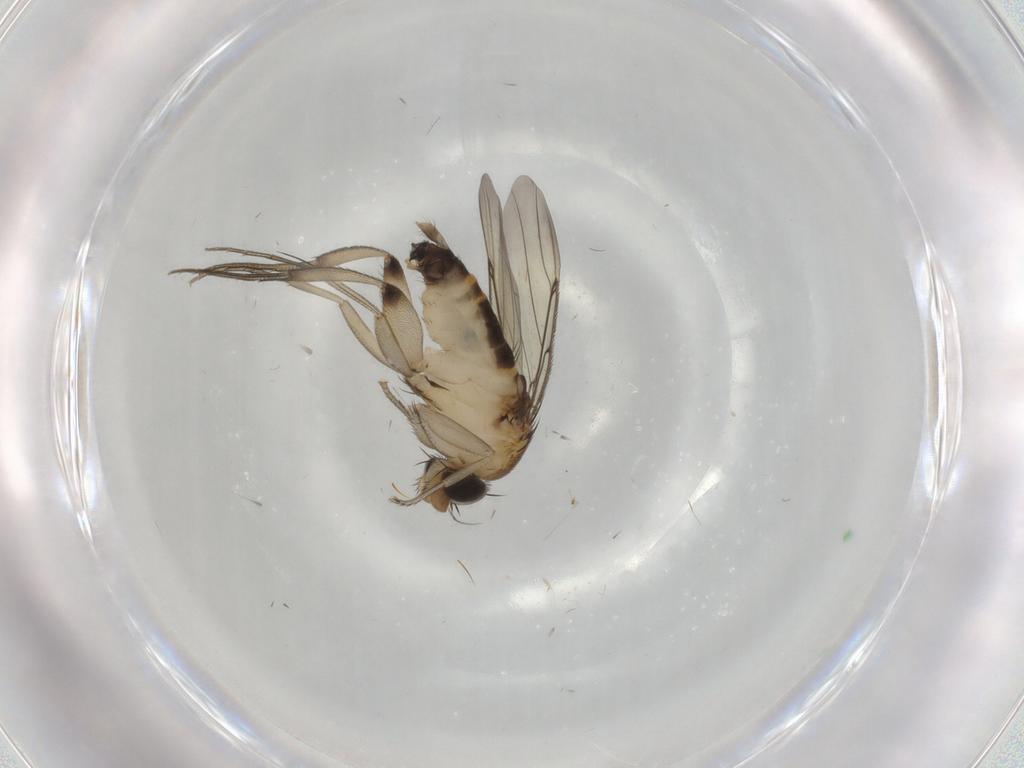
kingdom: Animalia
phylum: Arthropoda
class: Insecta
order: Diptera
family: Phoridae
